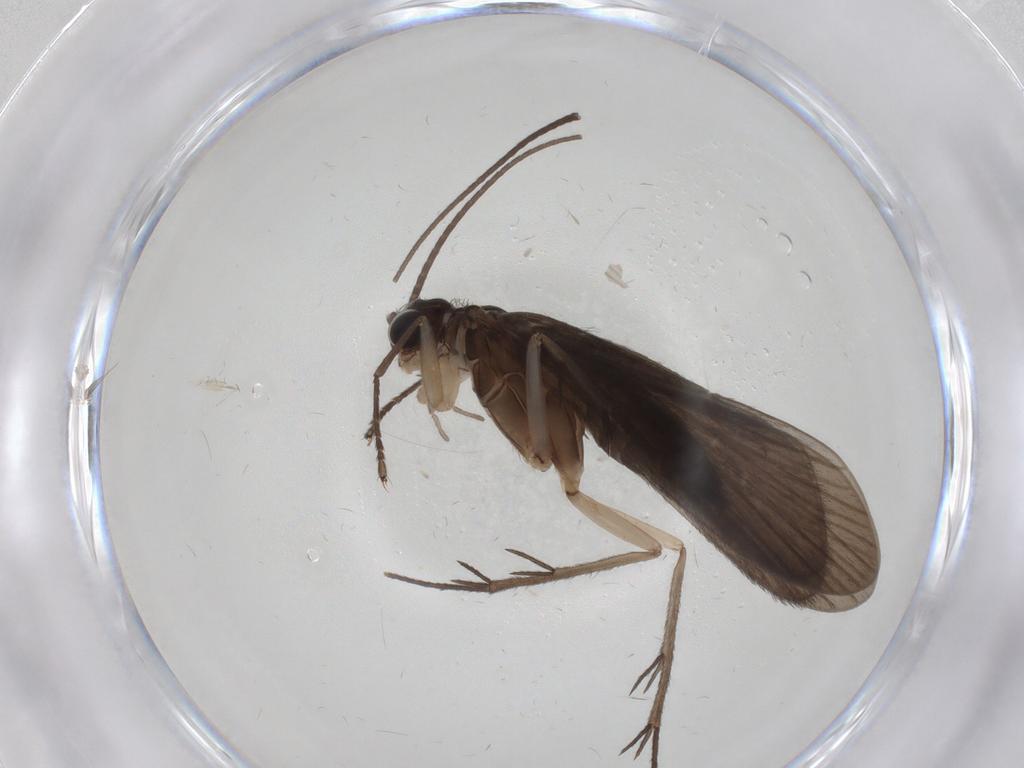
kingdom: Animalia
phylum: Arthropoda
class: Insecta
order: Trichoptera
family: Philopotamidae
